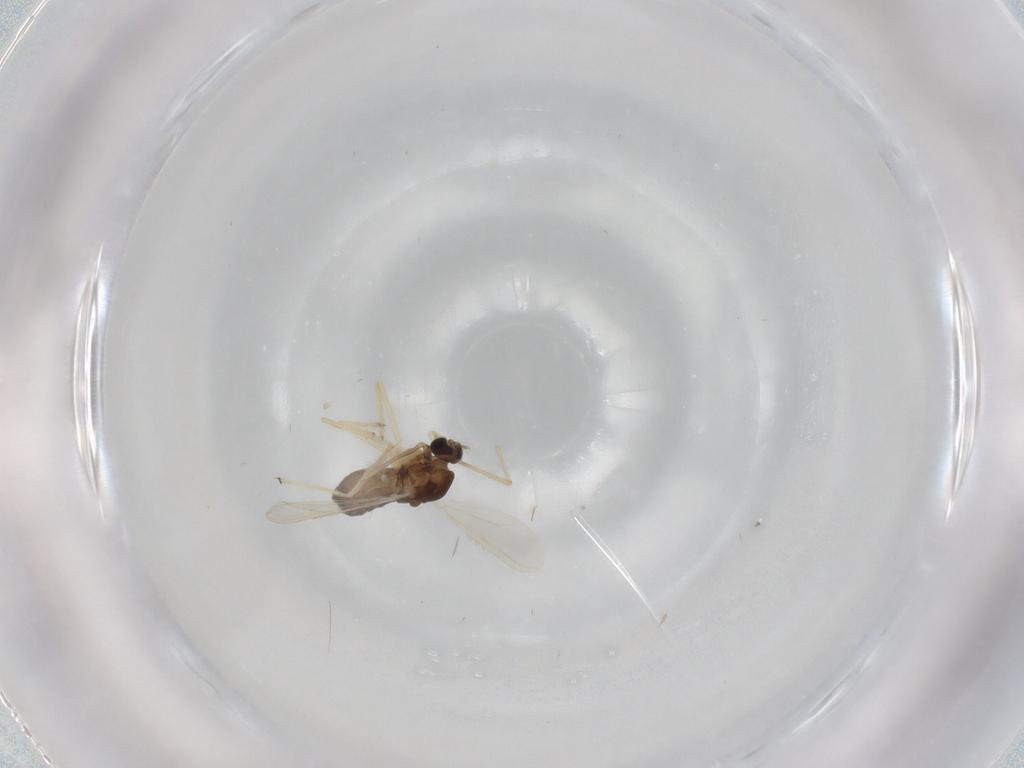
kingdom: Animalia
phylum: Arthropoda
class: Insecta
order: Diptera
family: Chironomidae
